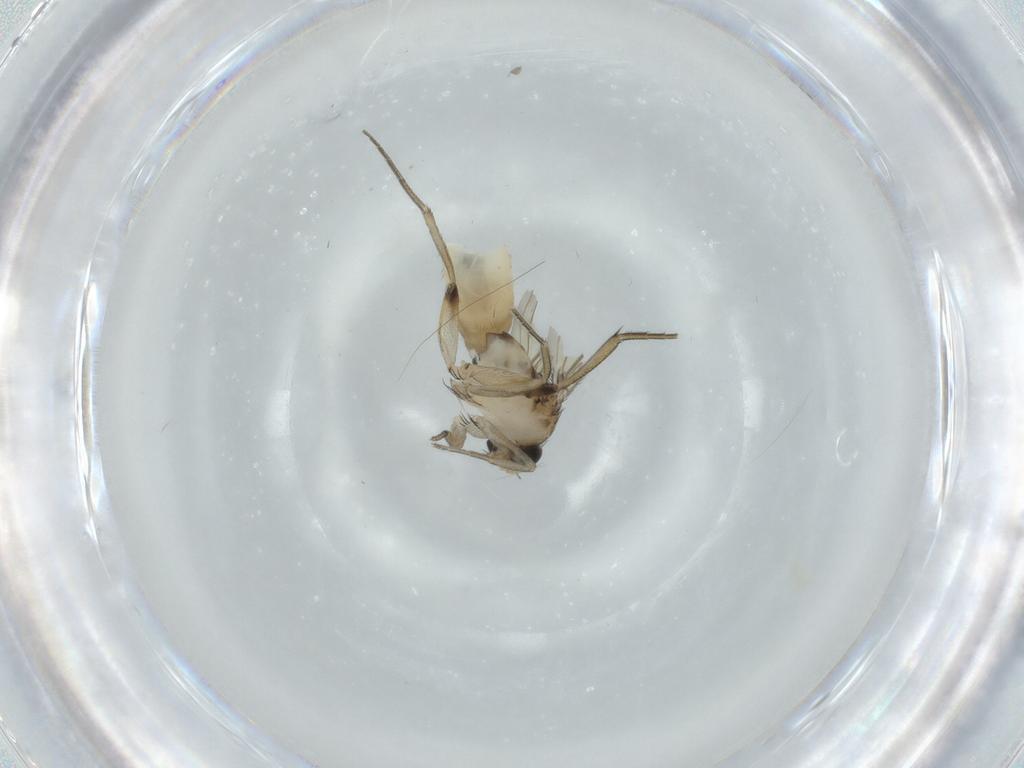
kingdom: Animalia
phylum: Arthropoda
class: Insecta
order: Diptera
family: Phoridae
